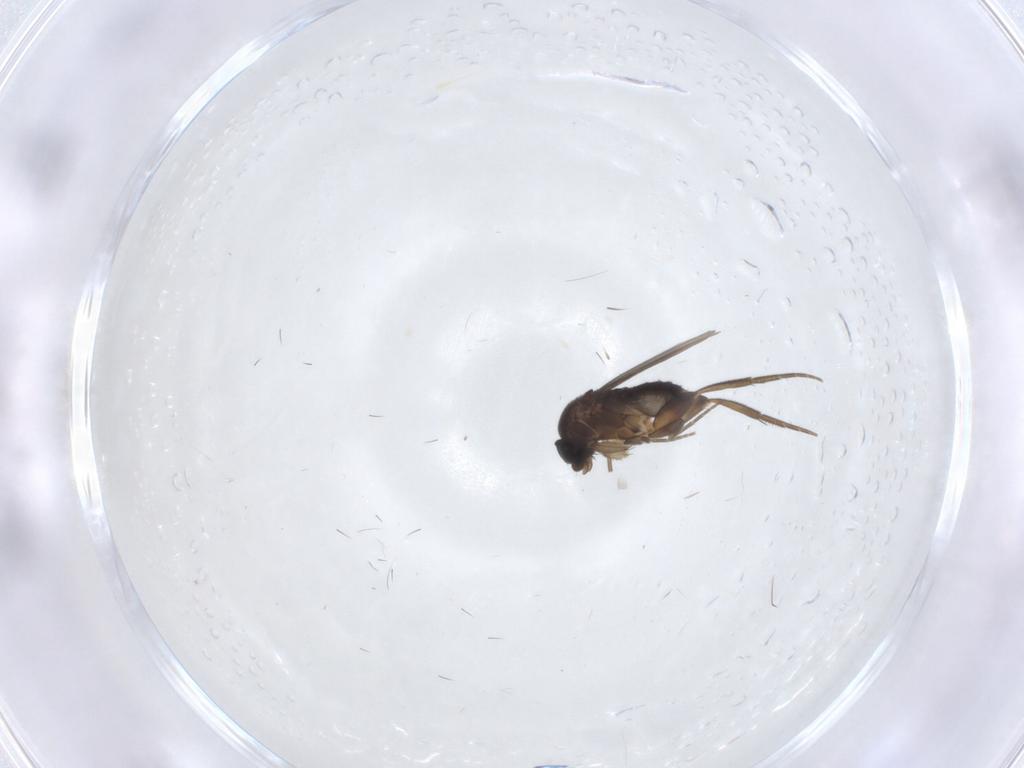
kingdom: Animalia
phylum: Arthropoda
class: Insecta
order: Diptera
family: Phoridae
